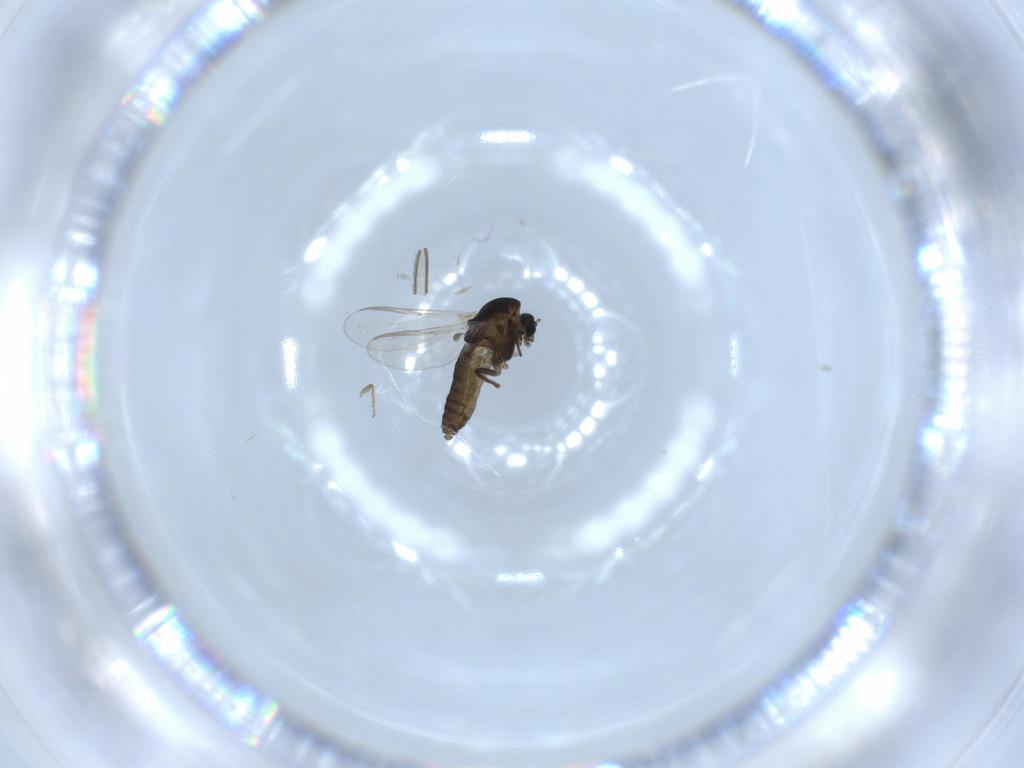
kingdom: Animalia
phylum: Arthropoda
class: Insecta
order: Diptera
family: Chironomidae
